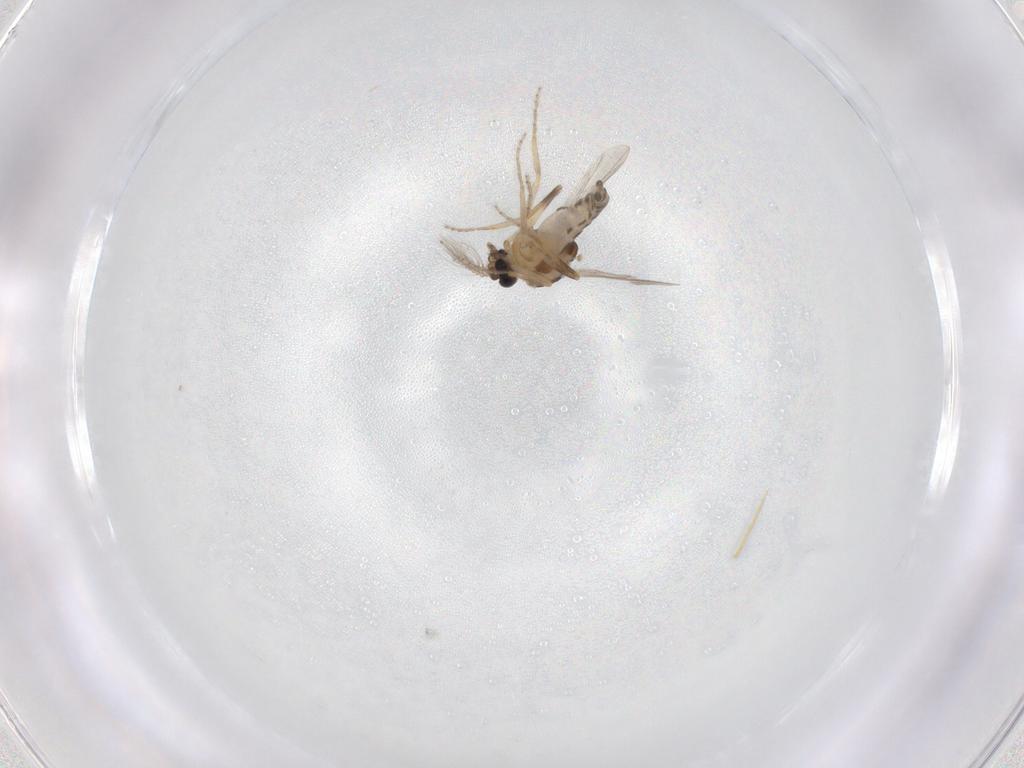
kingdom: Animalia
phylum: Arthropoda
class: Insecta
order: Diptera
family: Ceratopogonidae
